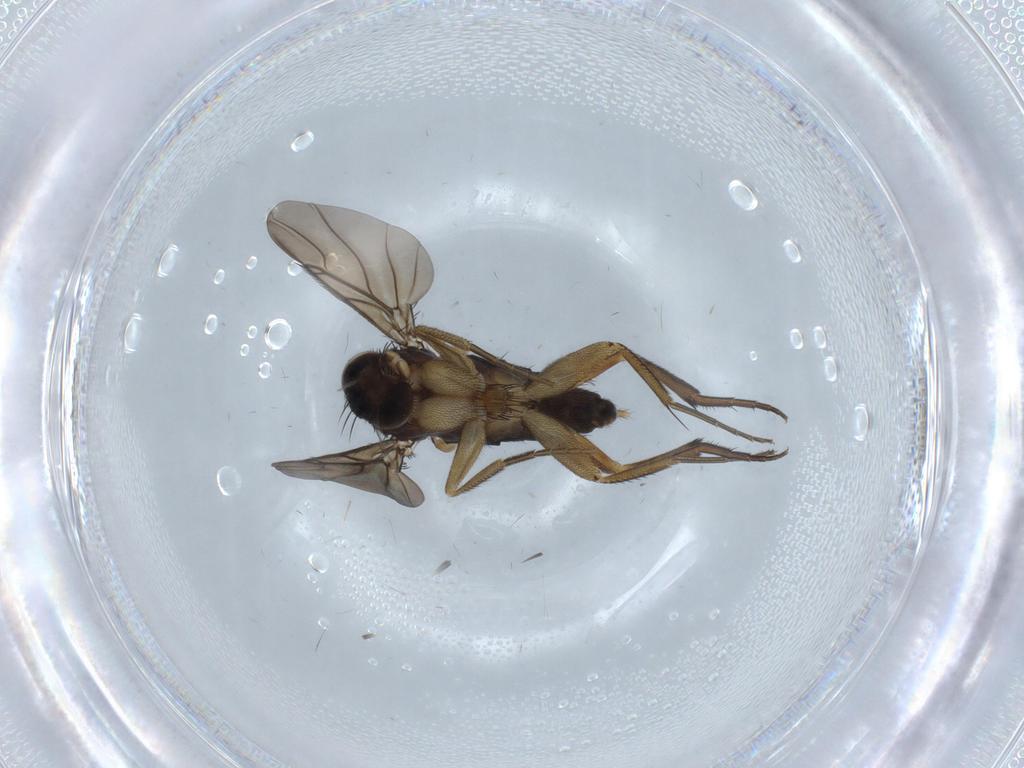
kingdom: Animalia
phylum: Arthropoda
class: Insecta
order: Diptera
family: Phoridae
